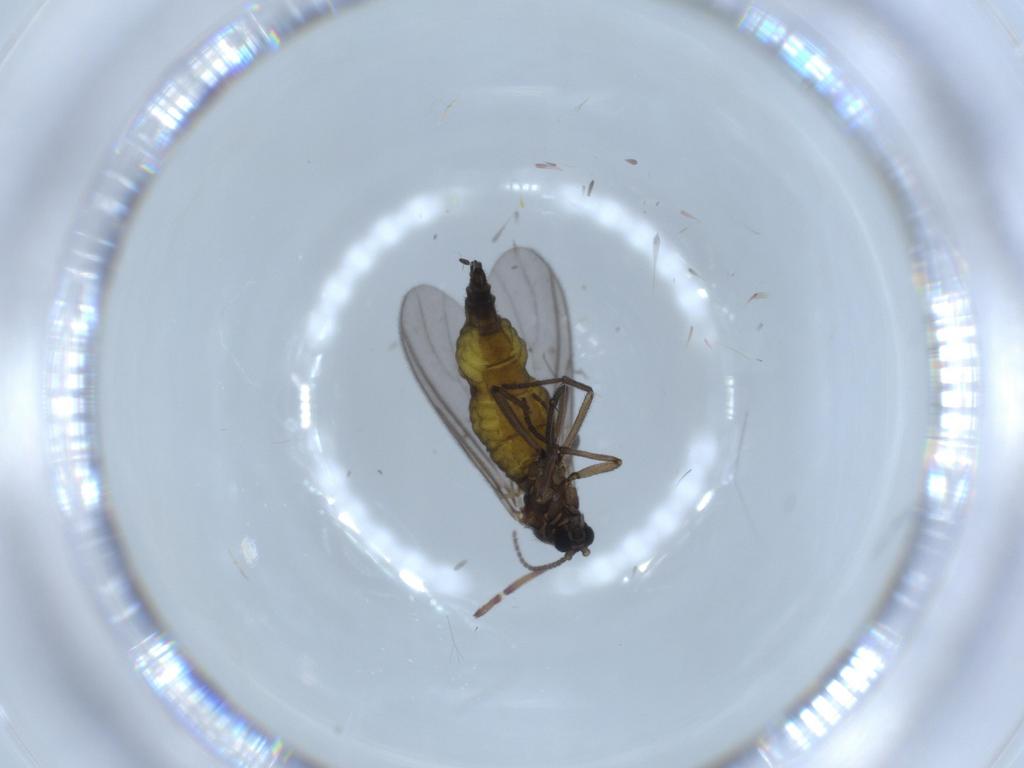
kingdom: Animalia
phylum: Arthropoda
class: Insecta
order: Diptera
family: Sciaridae
